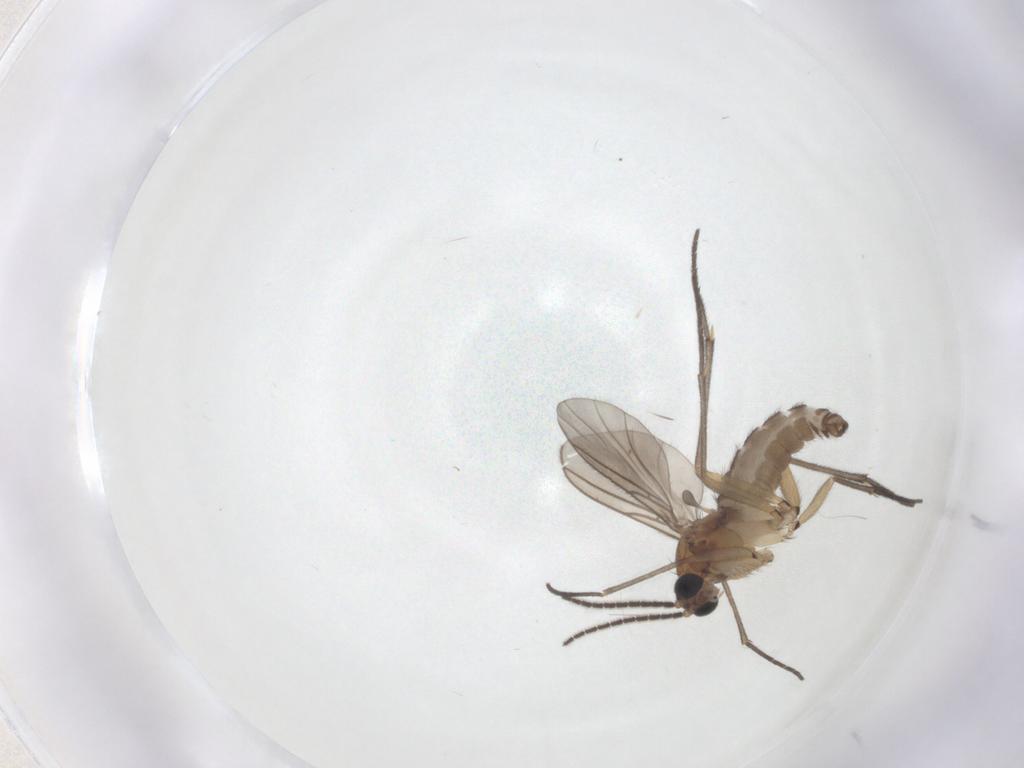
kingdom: Animalia
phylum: Arthropoda
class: Insecta
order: Diptera
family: Sciaridae
